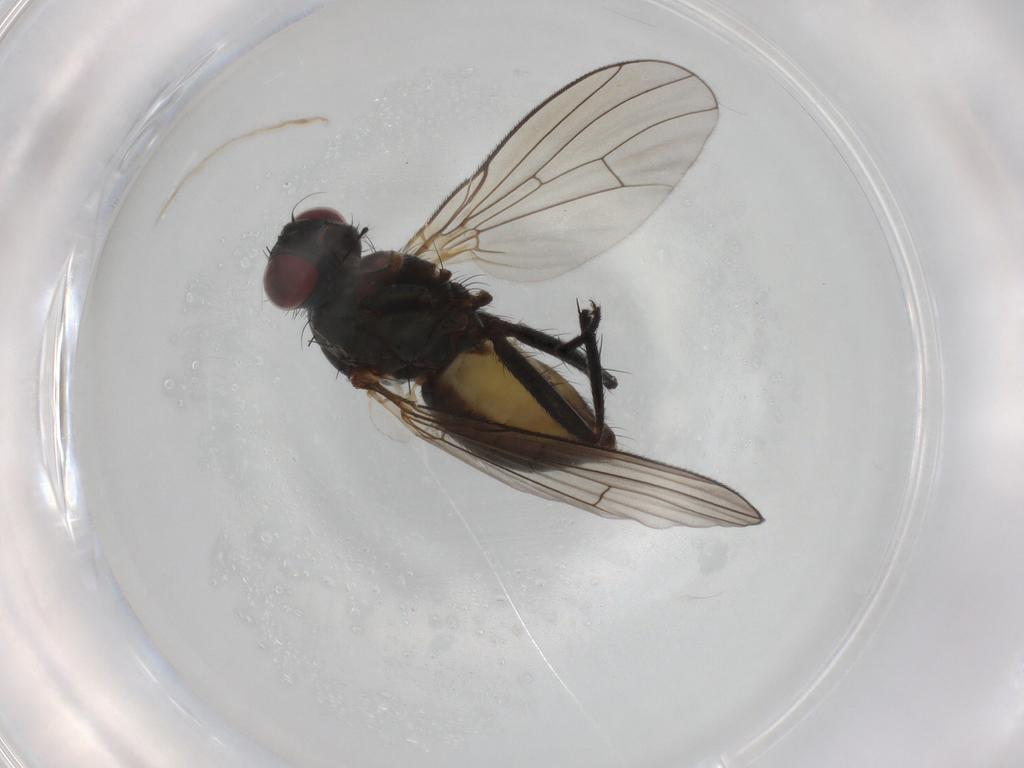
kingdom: Animalia
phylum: Arthropoda
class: Insecta
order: Diptera
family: Muscidae
